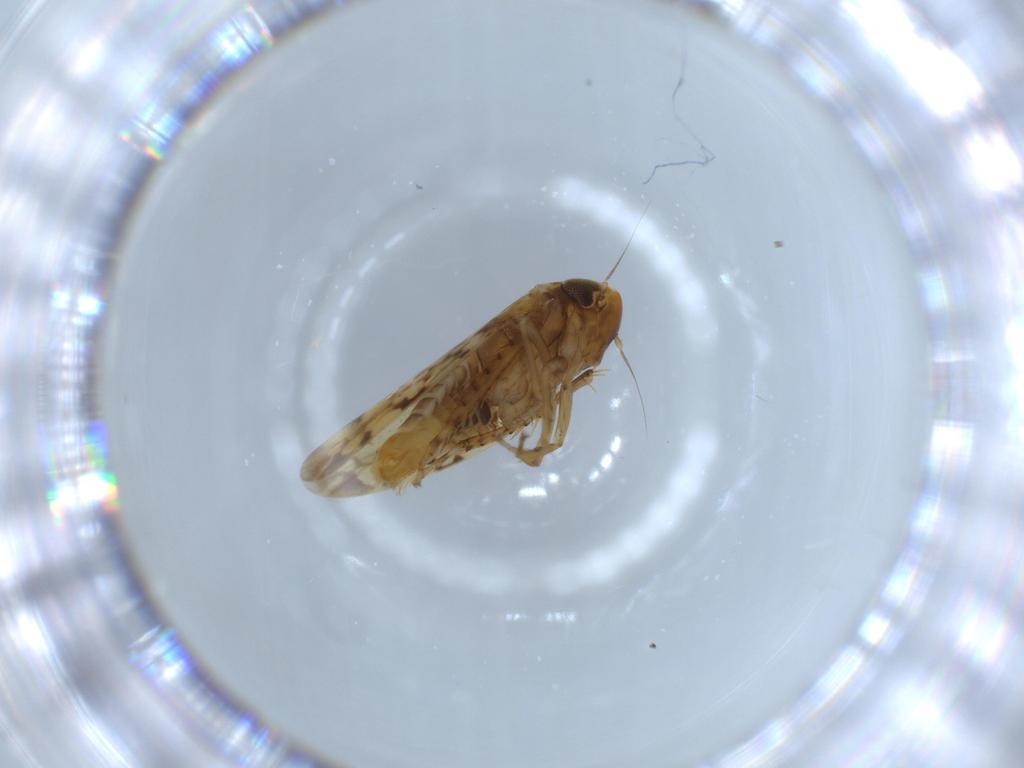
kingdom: Animalia
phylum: Arthropoda
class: Insecta
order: Hemiptera
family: Cicadellidae
